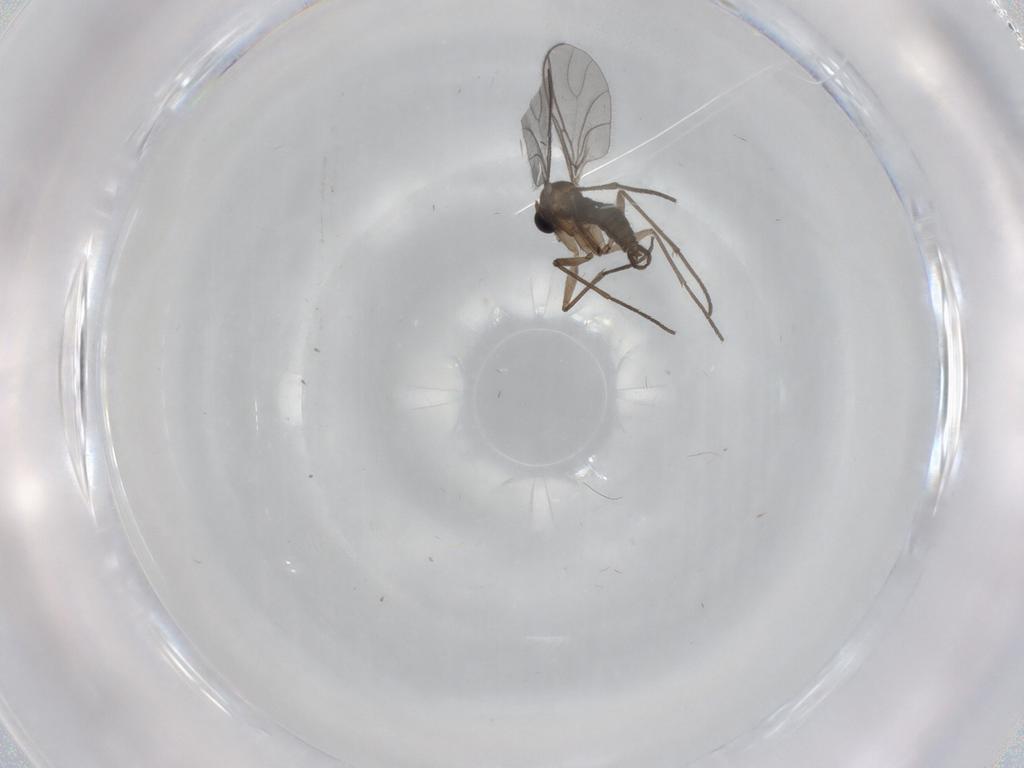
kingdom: Animalia
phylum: Arthropoda
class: Insecta
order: Diptera
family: Sciaridae
